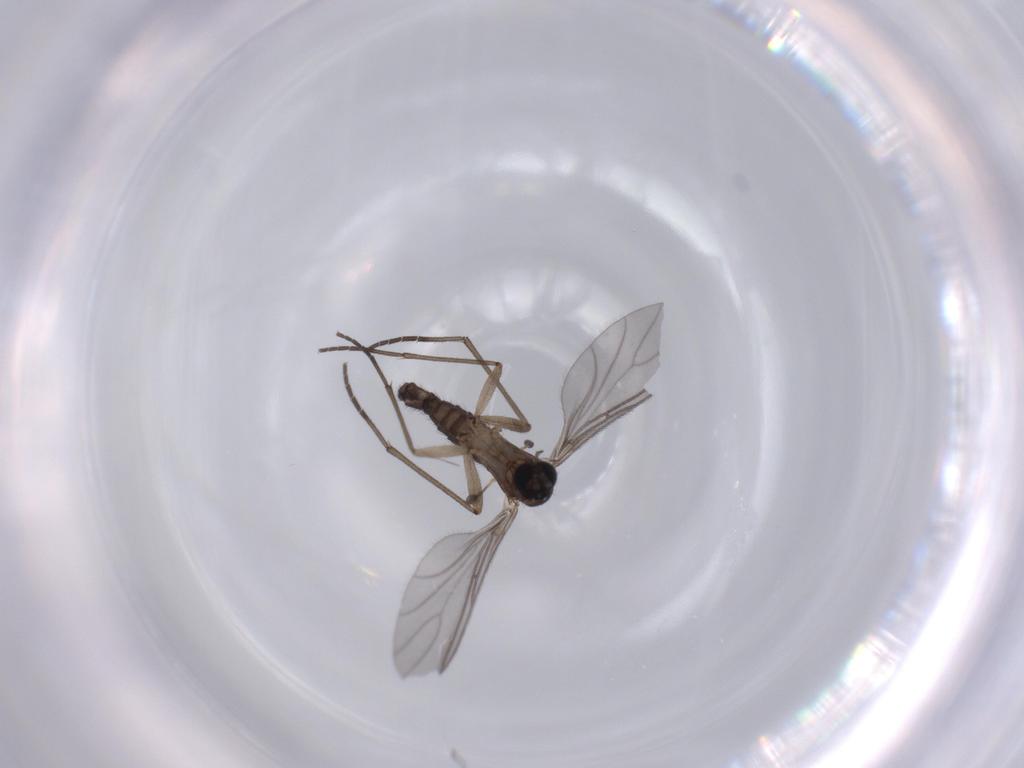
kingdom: Animalia
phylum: Arthropoda
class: Insecta
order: Diptera
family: Sciaridae
